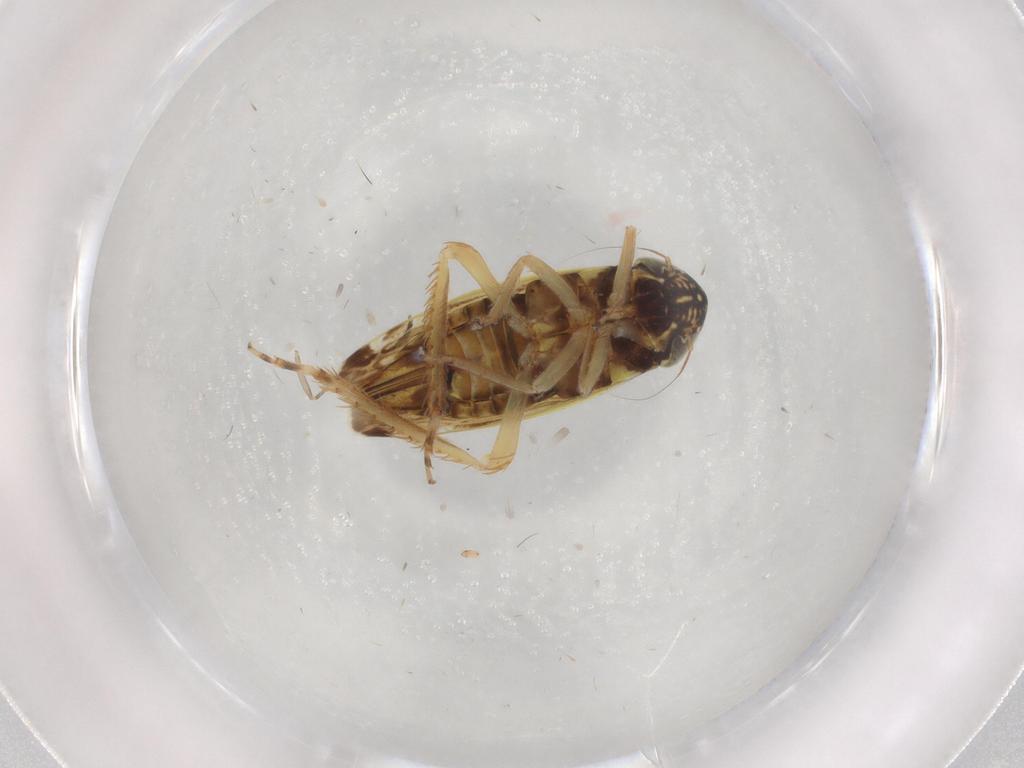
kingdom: Animalia
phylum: Arthropoda
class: Insecta
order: Hemiptera
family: Cicadellidae
